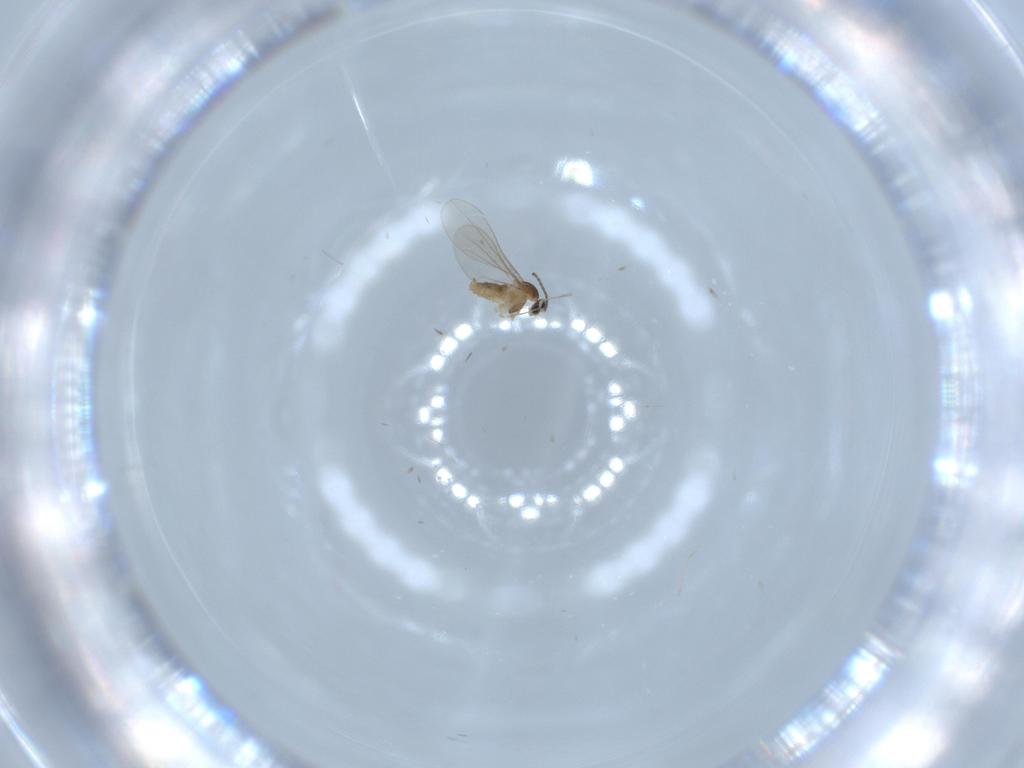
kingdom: Animalia
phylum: Arthropoda
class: Insecta
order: Diptera
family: Cecidomyiidae
